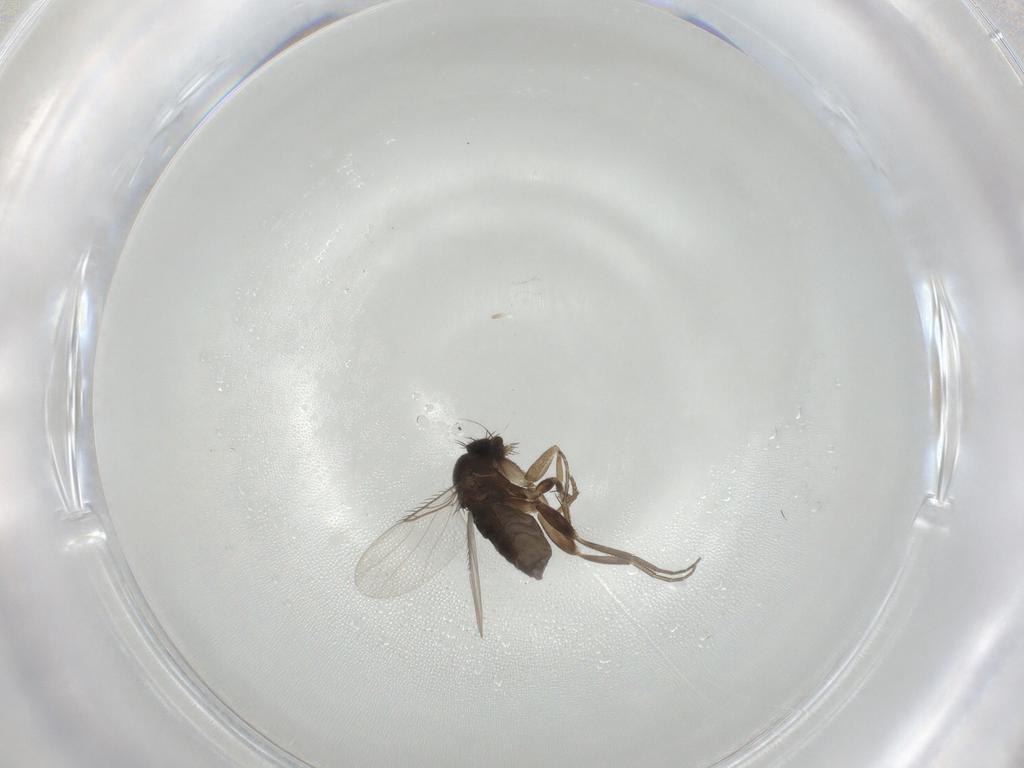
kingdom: Animalia
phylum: Arthropoda
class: Insecta
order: Diptera
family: Phoridae
